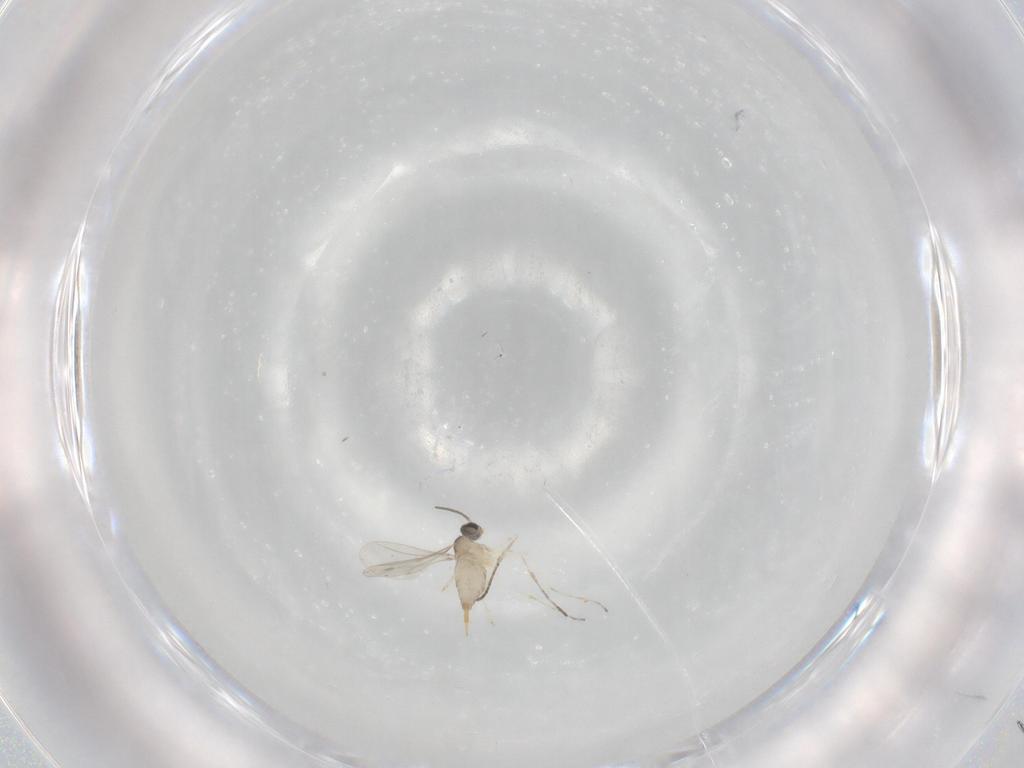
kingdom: Animalia
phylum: Arthropoda
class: Insecta
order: Diptera
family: Cecidomyiidae
